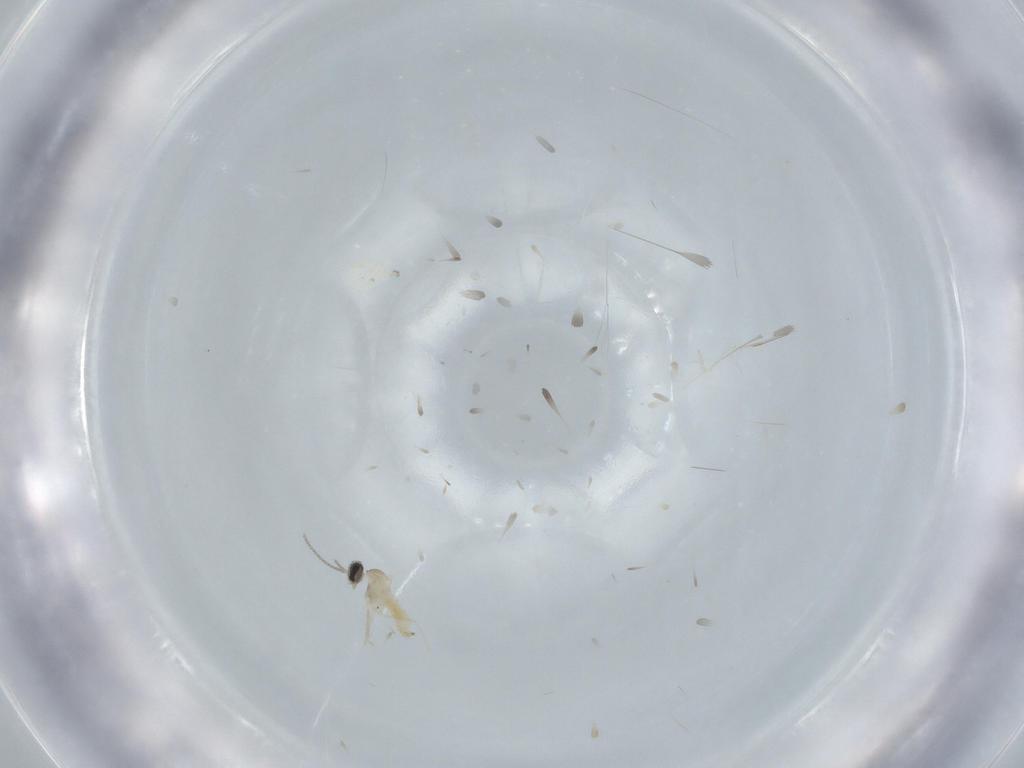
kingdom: Animalia
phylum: Arthropoda
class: Insecta
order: Diptera
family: Cecidomyiidae
